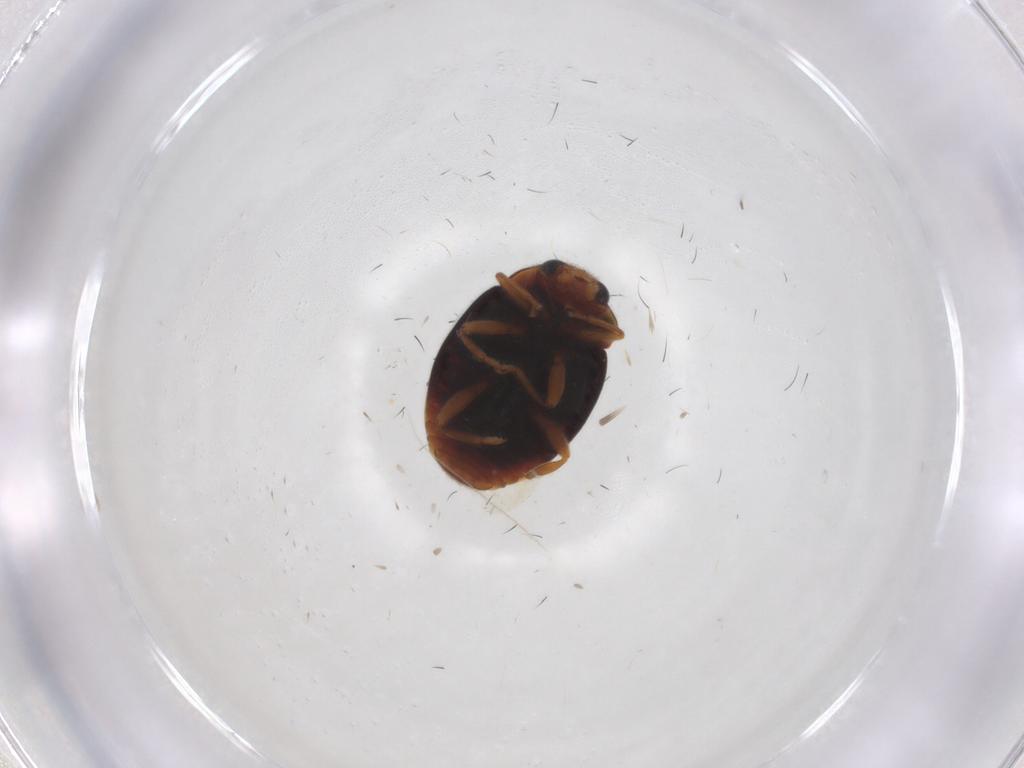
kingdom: Animalia
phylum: Arthropoda
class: Insecta
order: Coleoptera
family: Coccinellidae
